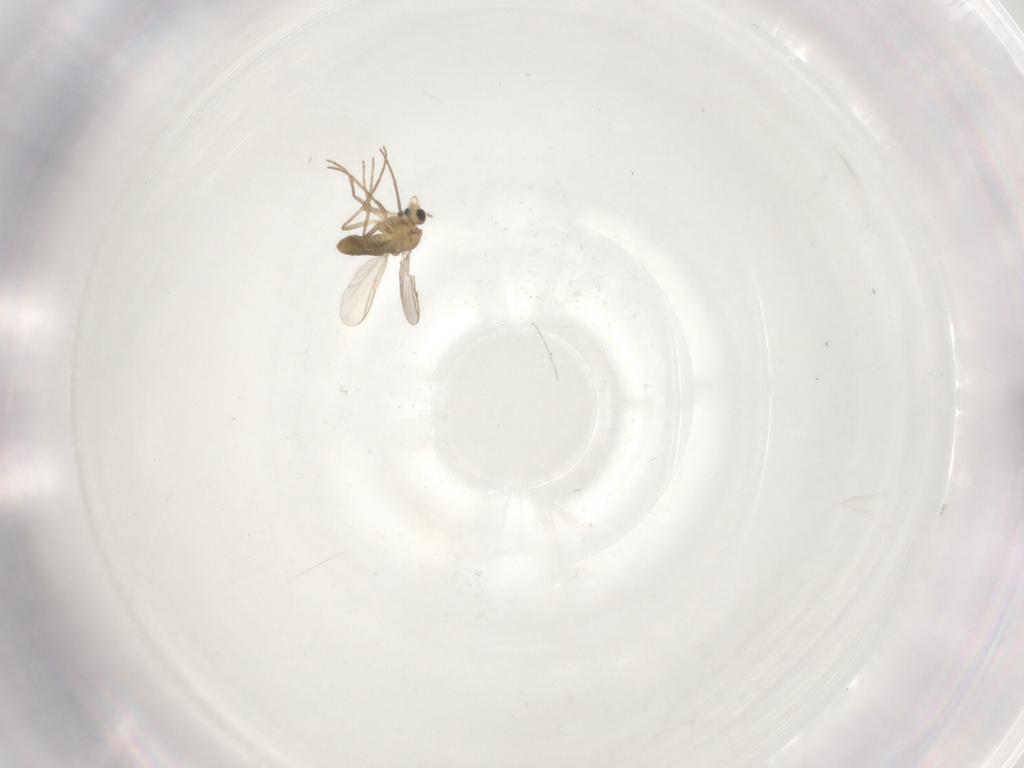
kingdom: Animalia
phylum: Arthropoda
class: Insecta
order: Diptera
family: Chironomidae
